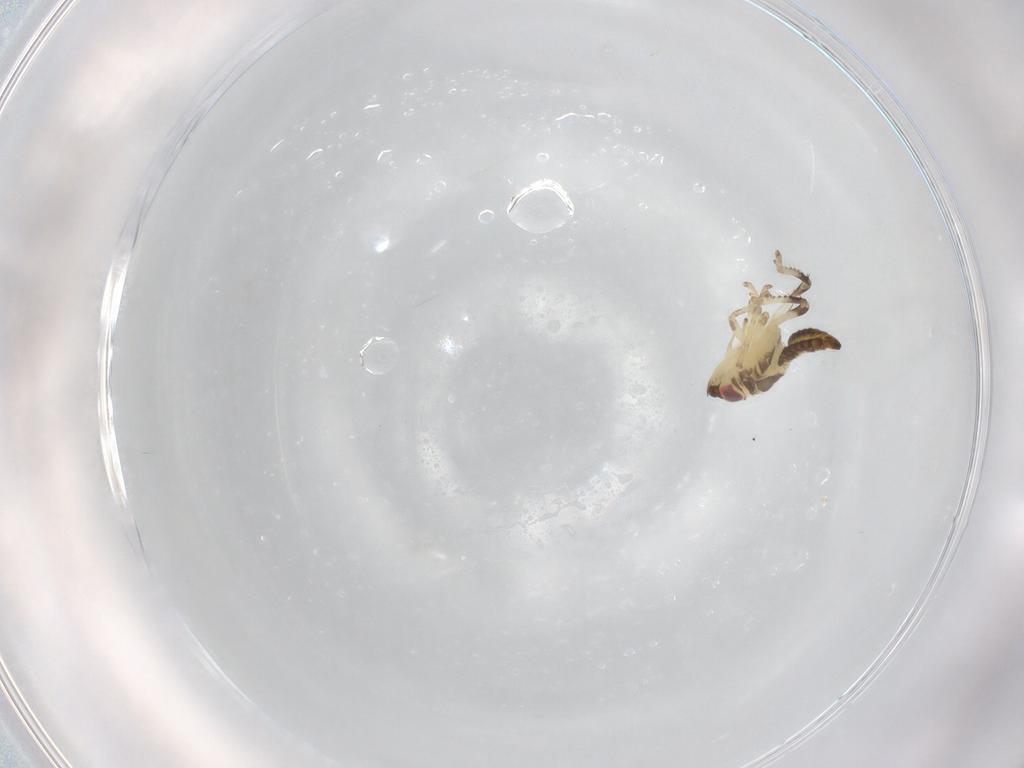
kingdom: Animalia
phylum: Arthropoda
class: Insecta
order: Hemiptera
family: Cicadellidae
